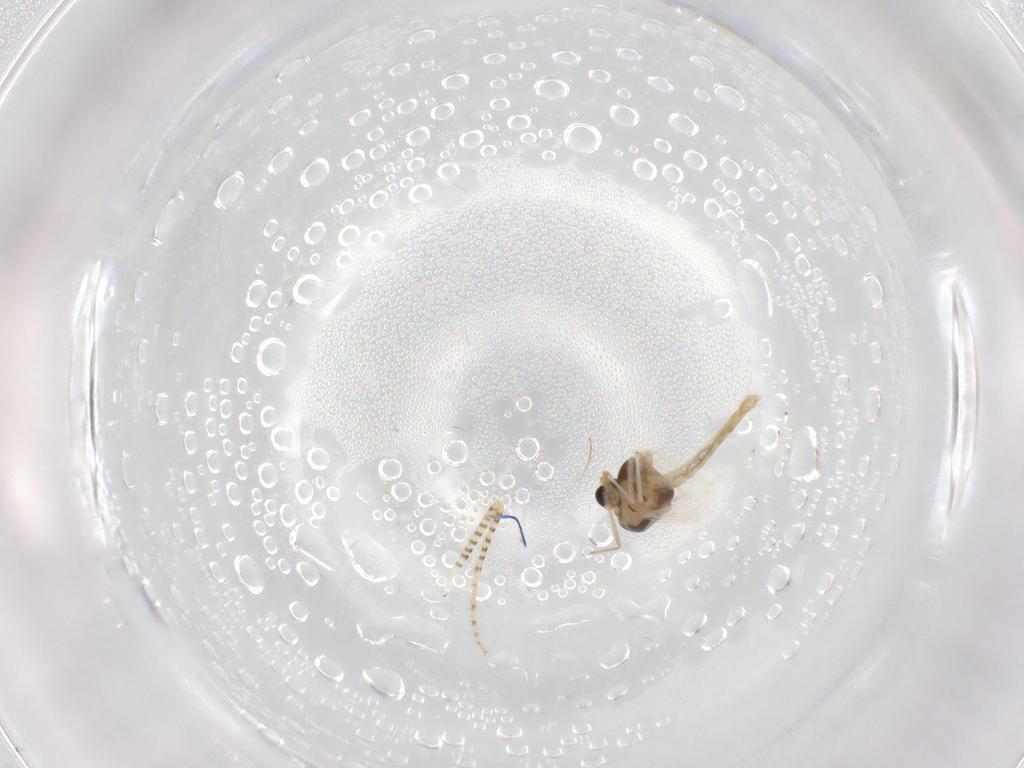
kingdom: Animalia
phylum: Arthropoda
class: Insecta
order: Diptera
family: Chaoboridae
